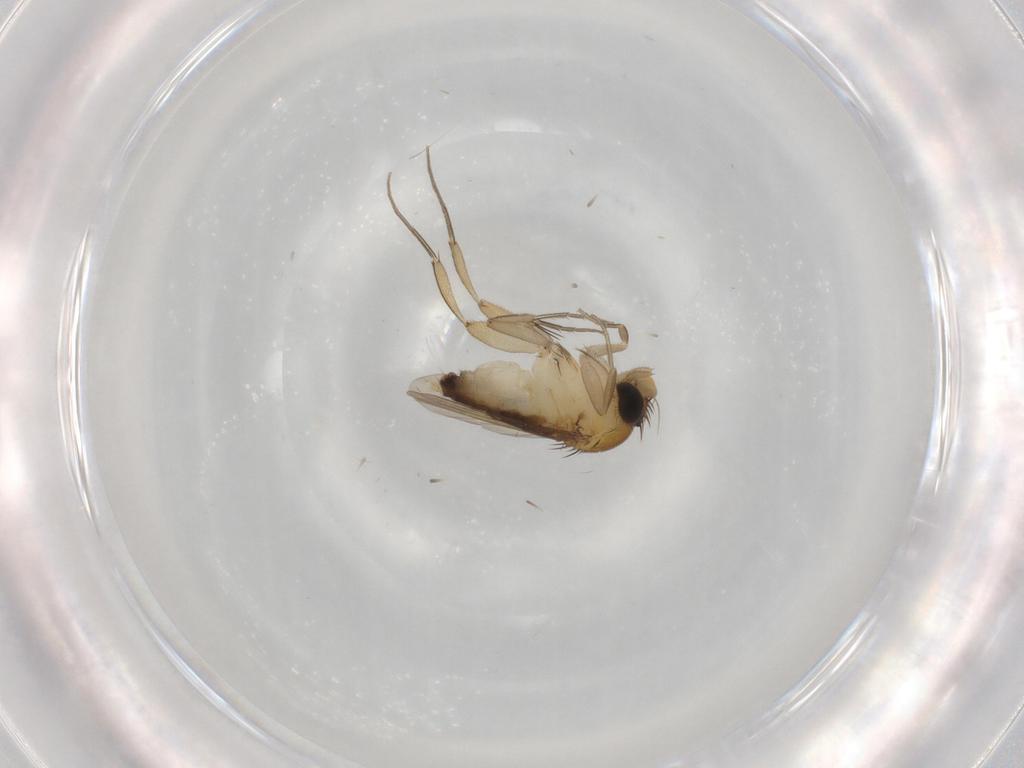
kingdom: Animalia
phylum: Arthropoda
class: Insecta
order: Diptera
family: Phoridae
